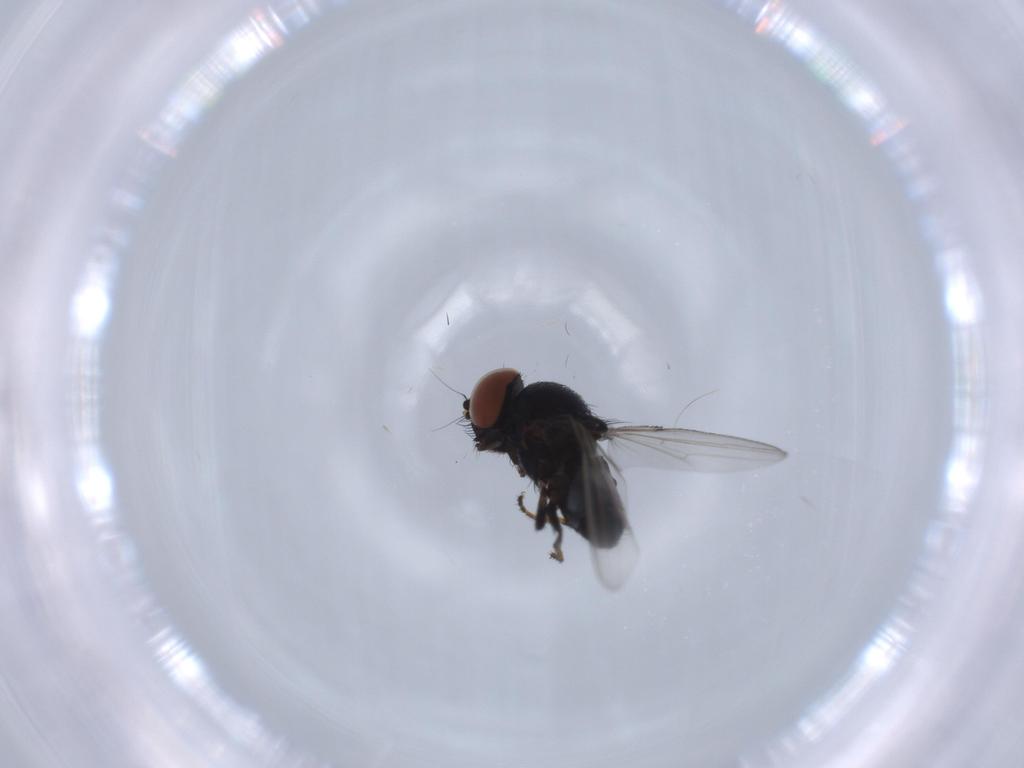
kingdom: Animalia
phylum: Arthropoda
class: Insecta
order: Diptera
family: Milichiidae
